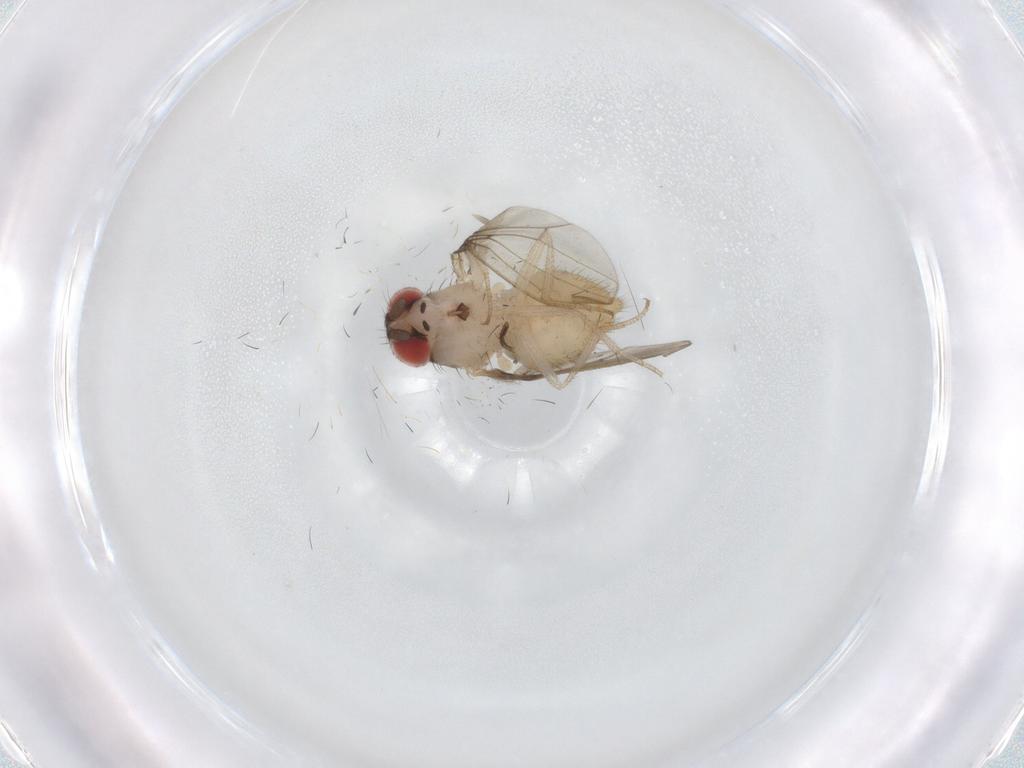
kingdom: Animalia
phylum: Arthropoda
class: Insecta
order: Diptera
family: Drosophilidae
